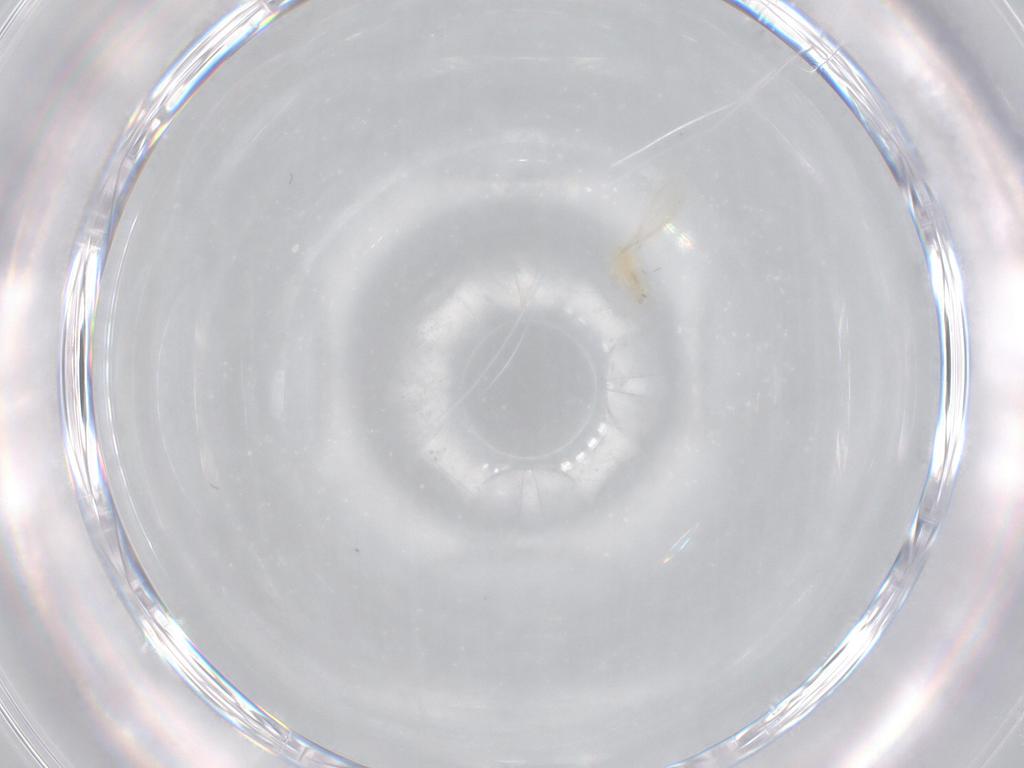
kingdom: Animalia
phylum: Arthropoda
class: Insecta
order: Diptera
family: Cecidomyiidae
